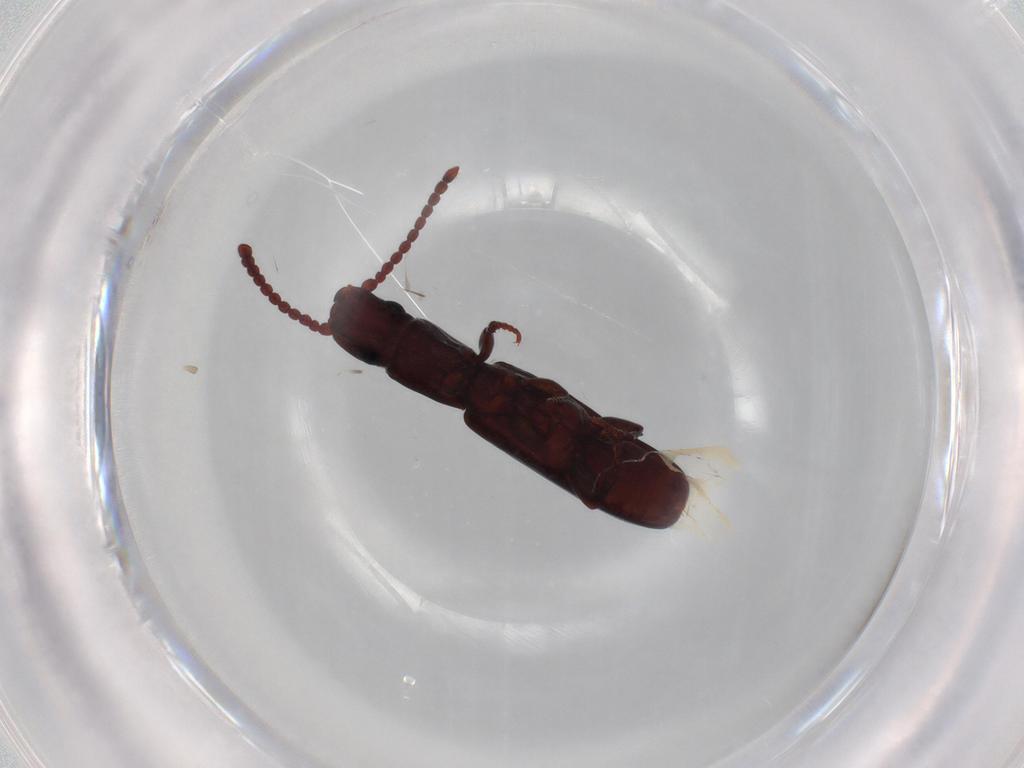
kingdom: Animalia
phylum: Arthropoda
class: Insecta
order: Coleoptera
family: Passandridae
